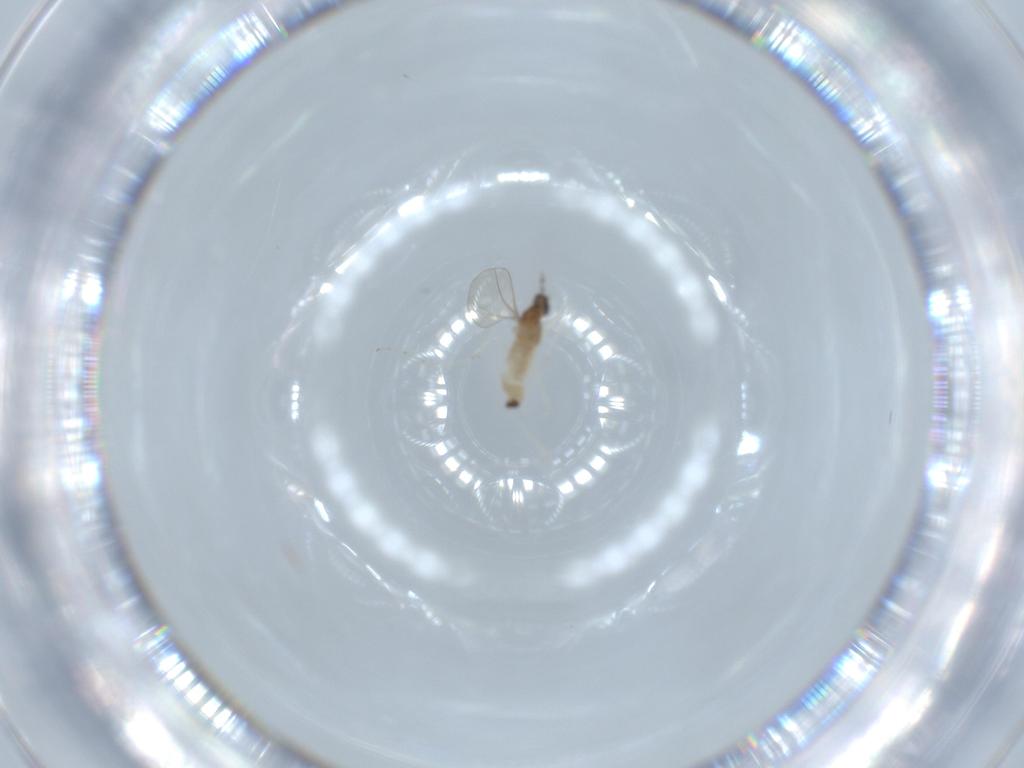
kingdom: Animalia
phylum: Arthropoda
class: Insecta
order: Diptera
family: Cecidomyiidae
